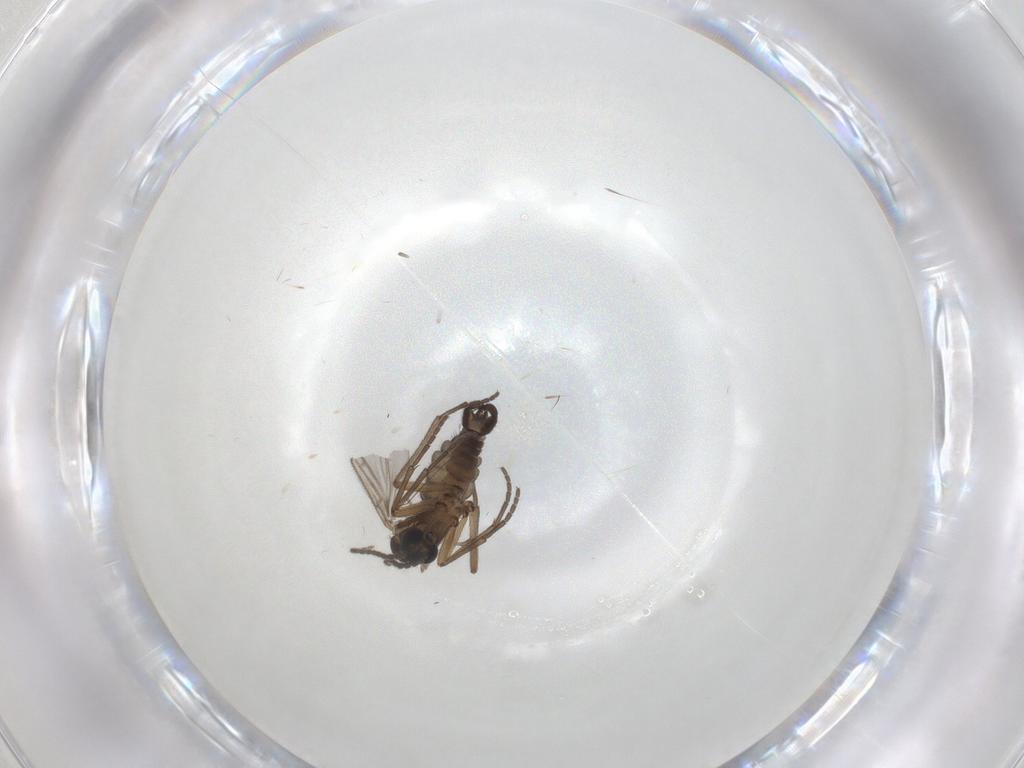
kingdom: Animalia
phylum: Arthropoda
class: Insecta
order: Diptera
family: Sciaridae
